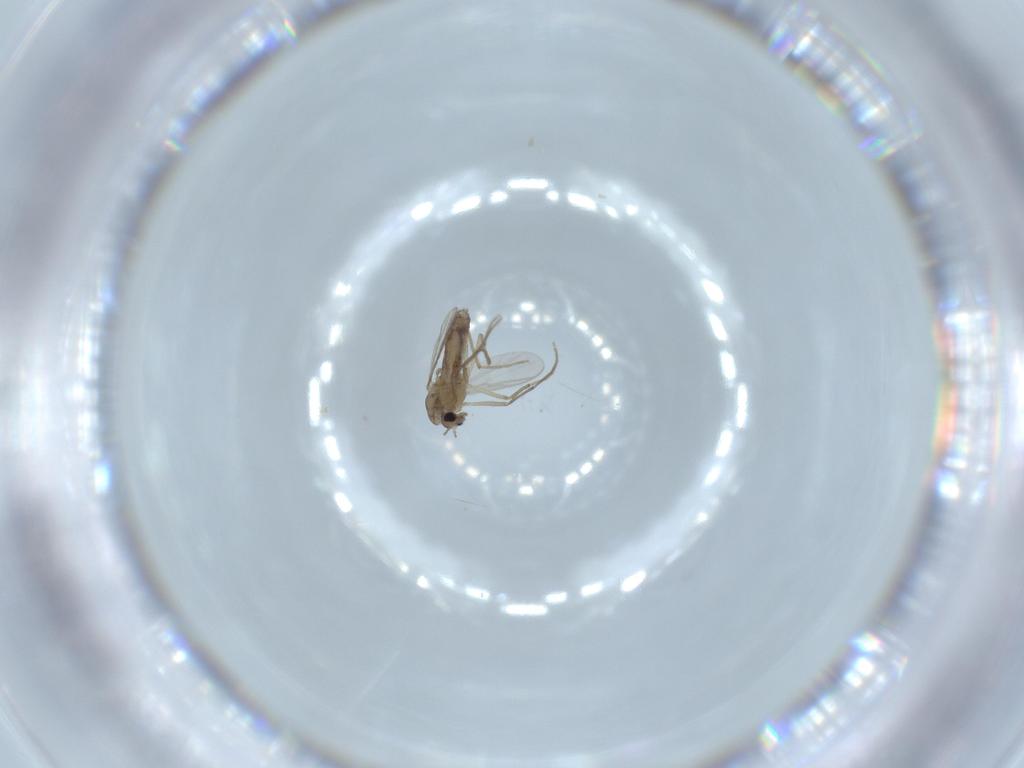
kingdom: Animalia
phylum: Arthropoda
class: Insecta
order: Diptera
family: Chironomidae
